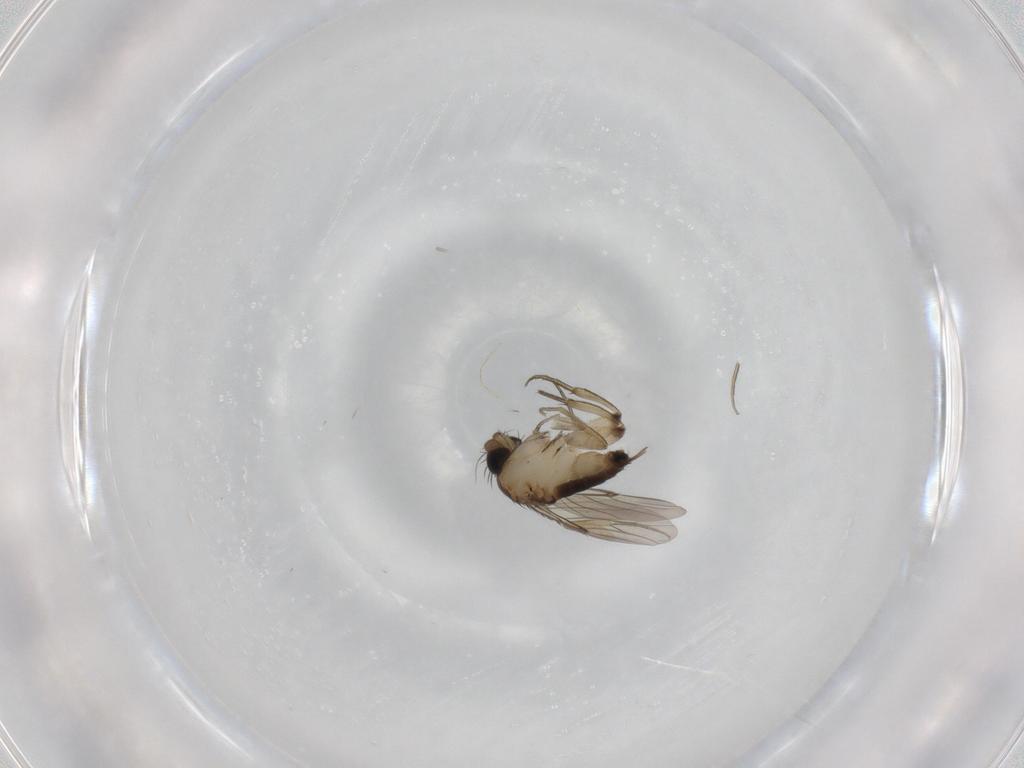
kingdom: Animalia
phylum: Arthropoda
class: Insecta
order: Diptera
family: Phoridae
